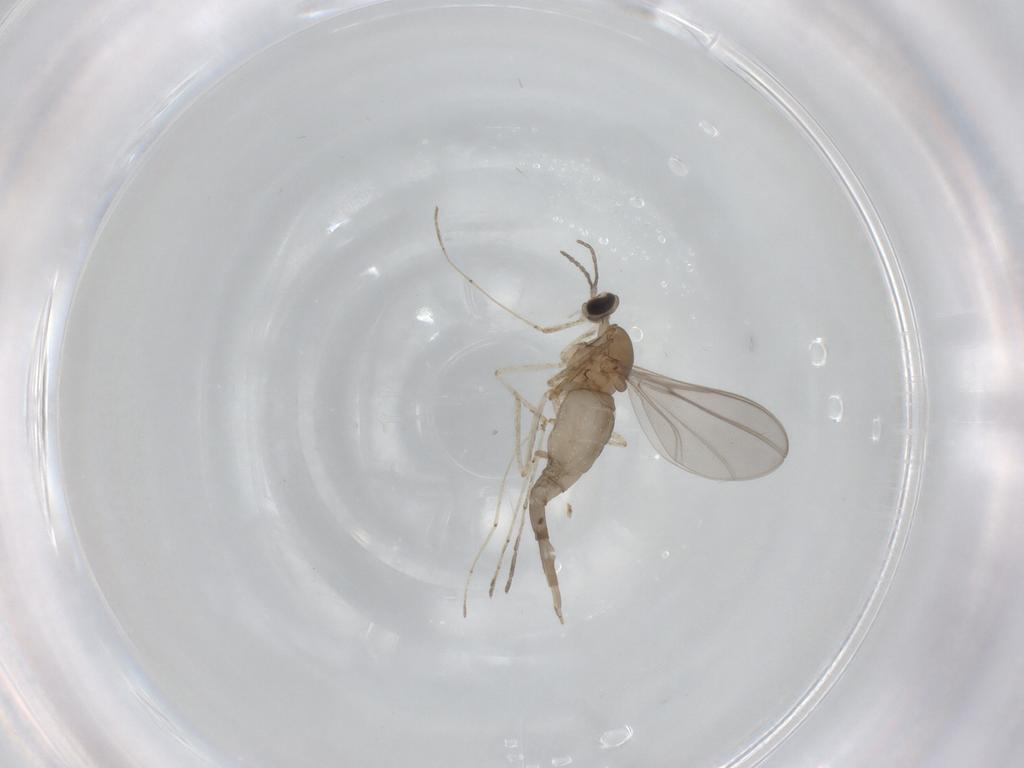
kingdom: Animalia
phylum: Arthropoda
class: Insecta
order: Diptera
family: Cecidomyiidae
